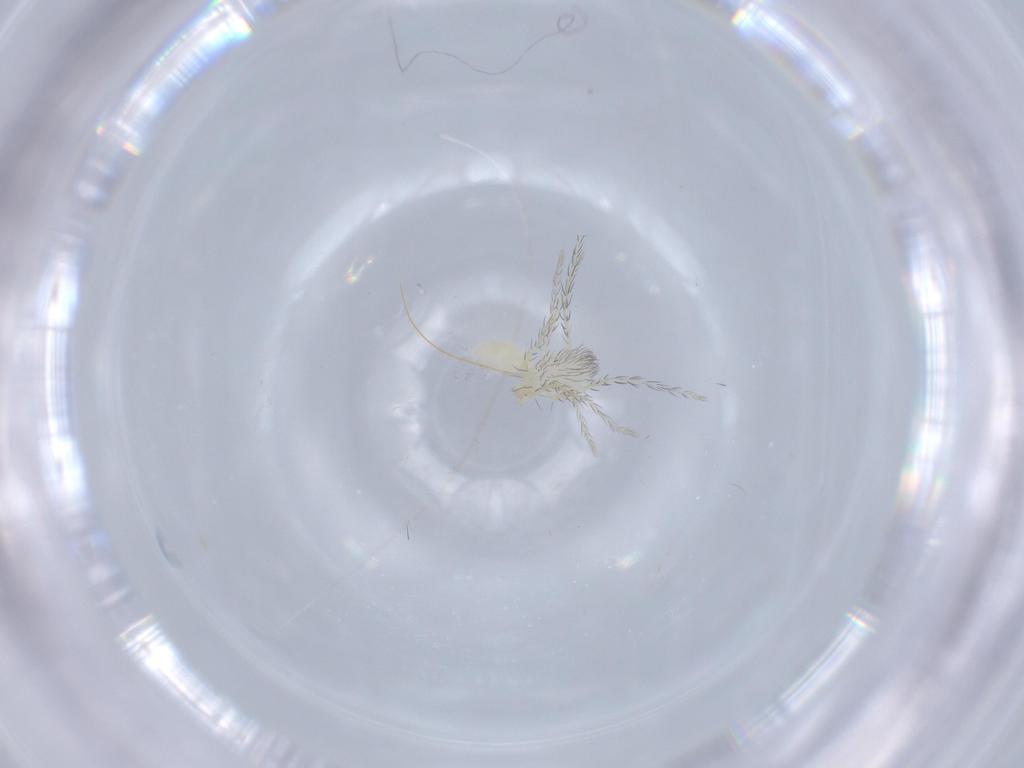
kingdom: Animalia
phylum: Arthropoda
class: Arachnida
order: Trombidiformes
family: Eupodidae
